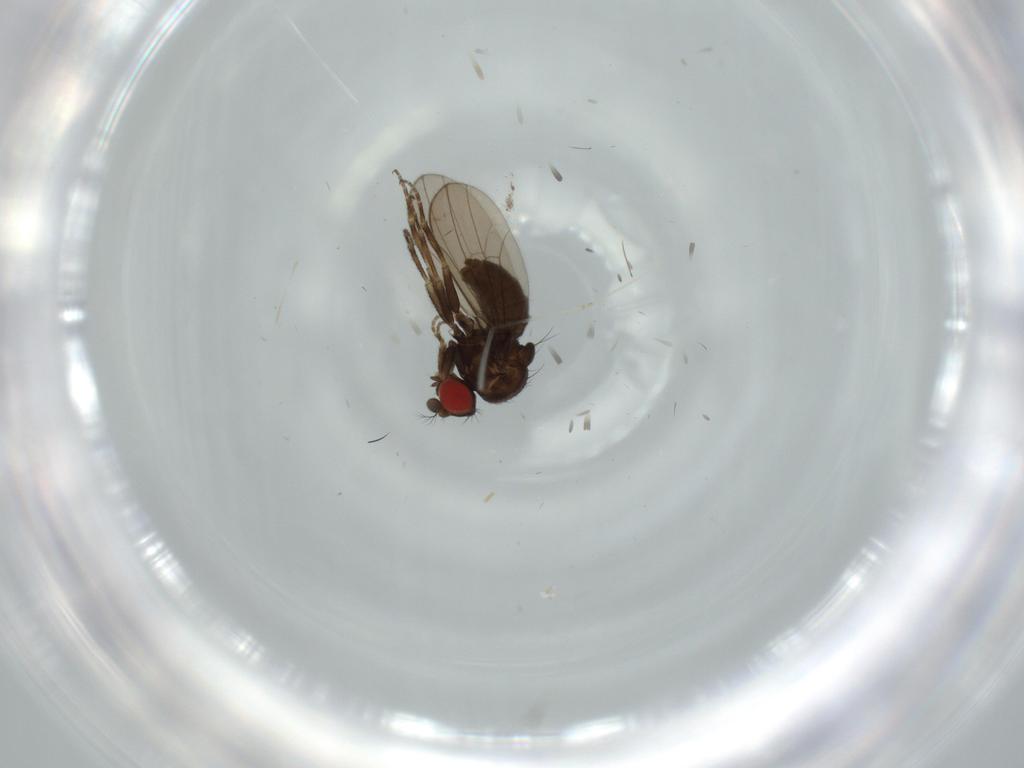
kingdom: Animalia
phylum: Arthropoda
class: Insecta
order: Diptera
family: Drosophilidae
